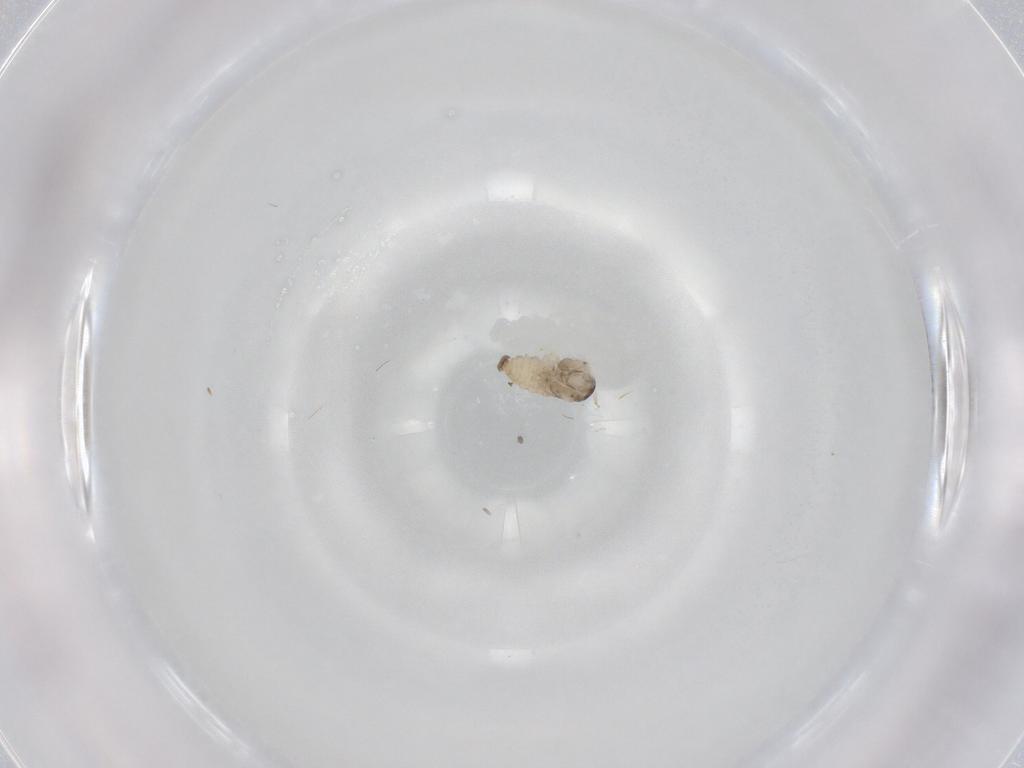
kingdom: Animalia
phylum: Arthropoda
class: Insecta
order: Diptera
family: Cecidomyiidae
